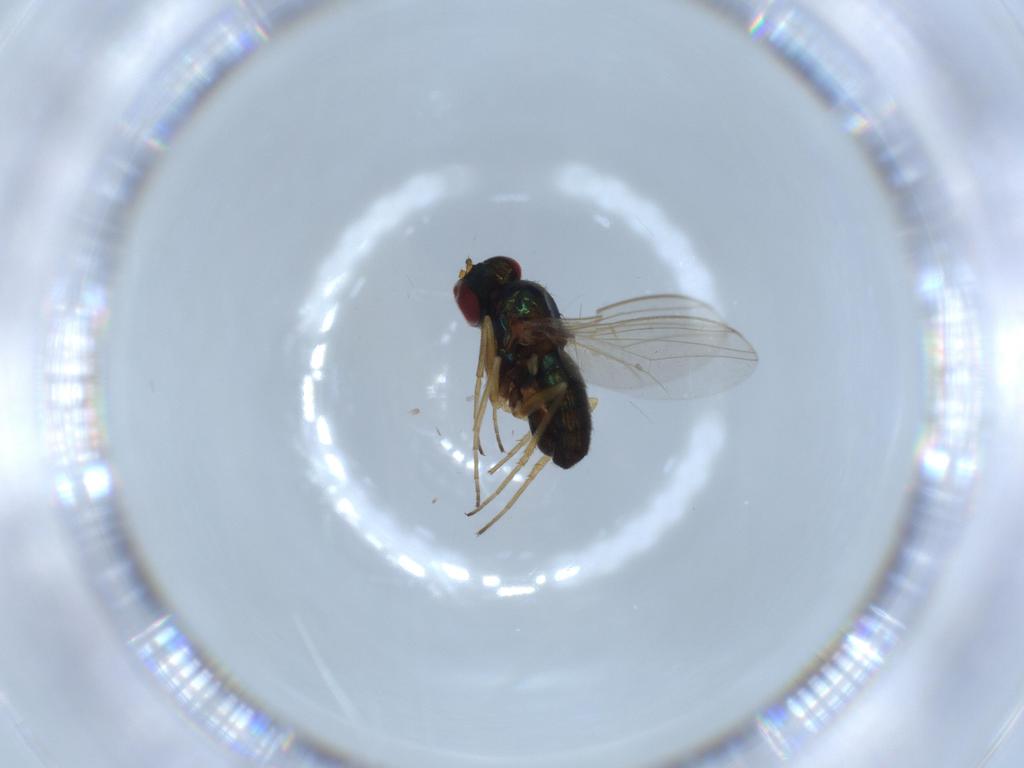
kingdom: Animalia
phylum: Arthropoda
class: Insecta
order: Diptera
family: Dolichopodidae
